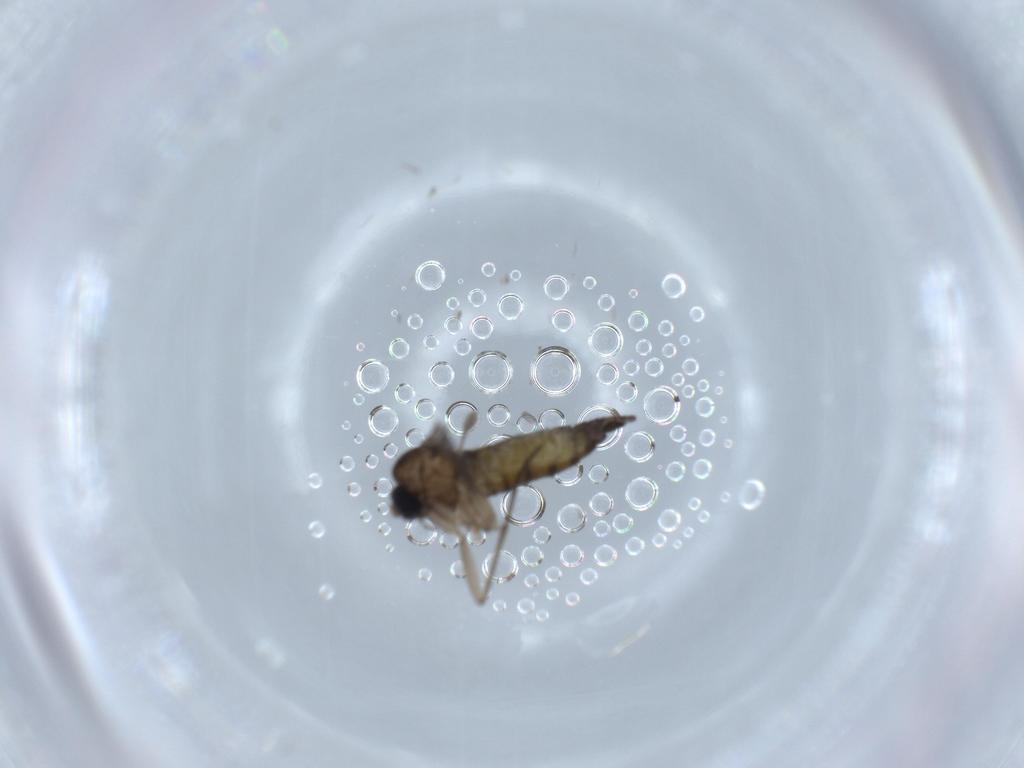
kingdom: Animalia
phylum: Arthropoda
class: Insecta
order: Diptera
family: Sciaridae
